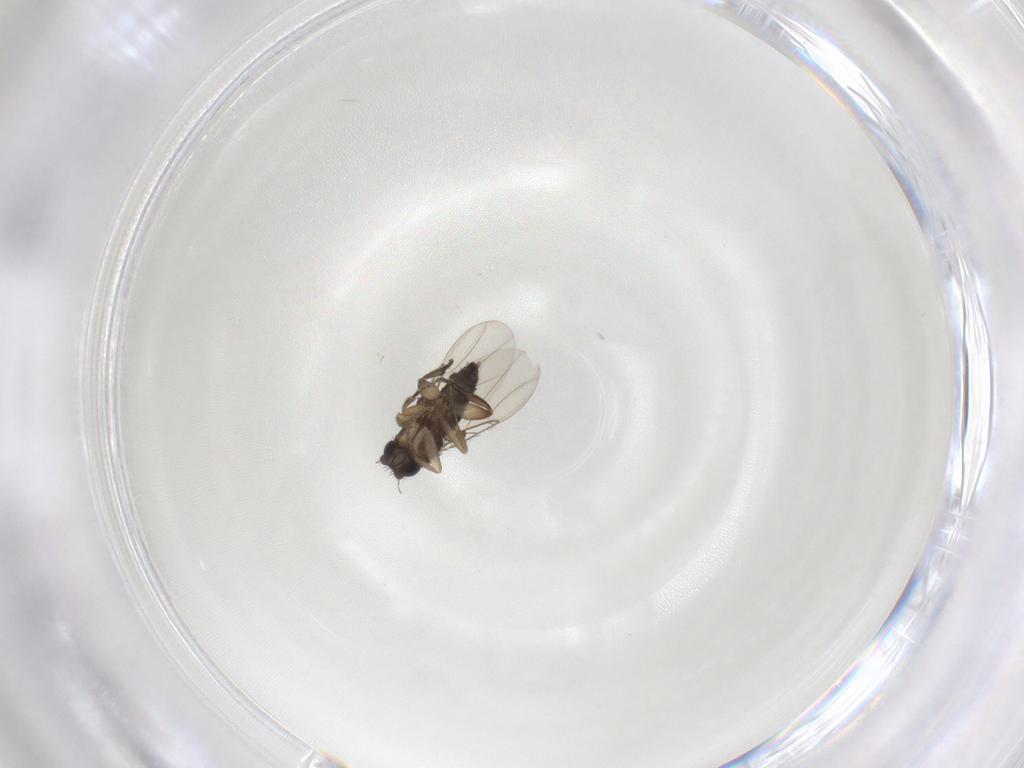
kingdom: Animalia
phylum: Arthropoda
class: Insecta
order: Diptera
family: Phoridae
